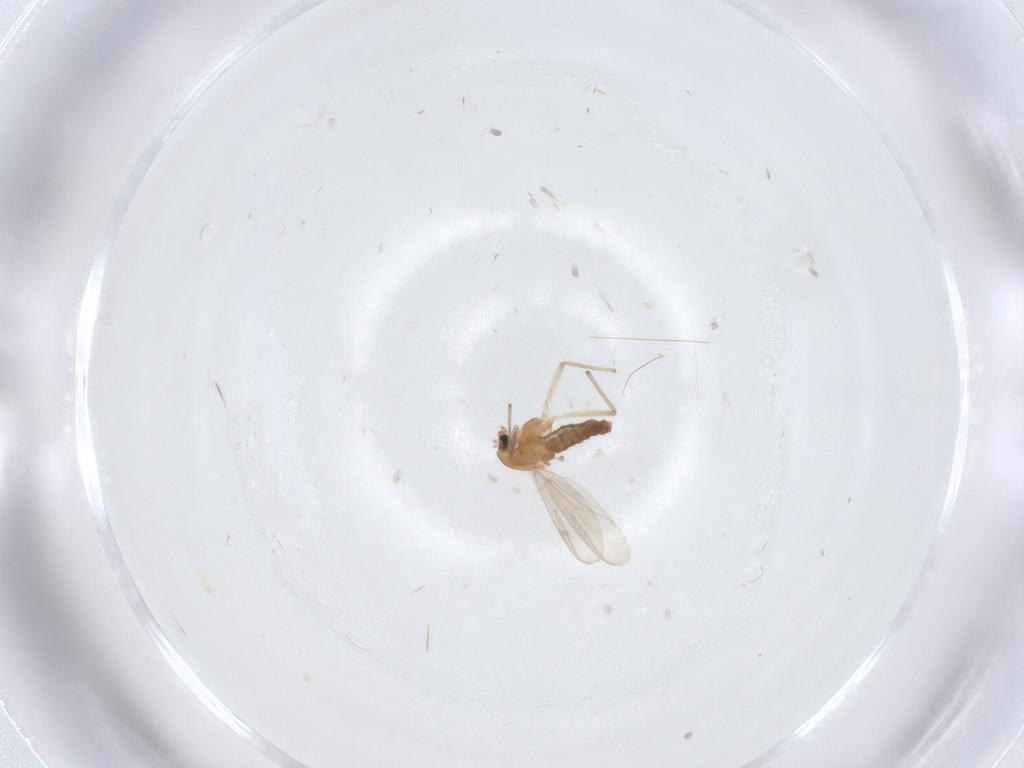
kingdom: Animalia
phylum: Arthropoda
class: Insecta
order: Diptera
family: Chironomidae
